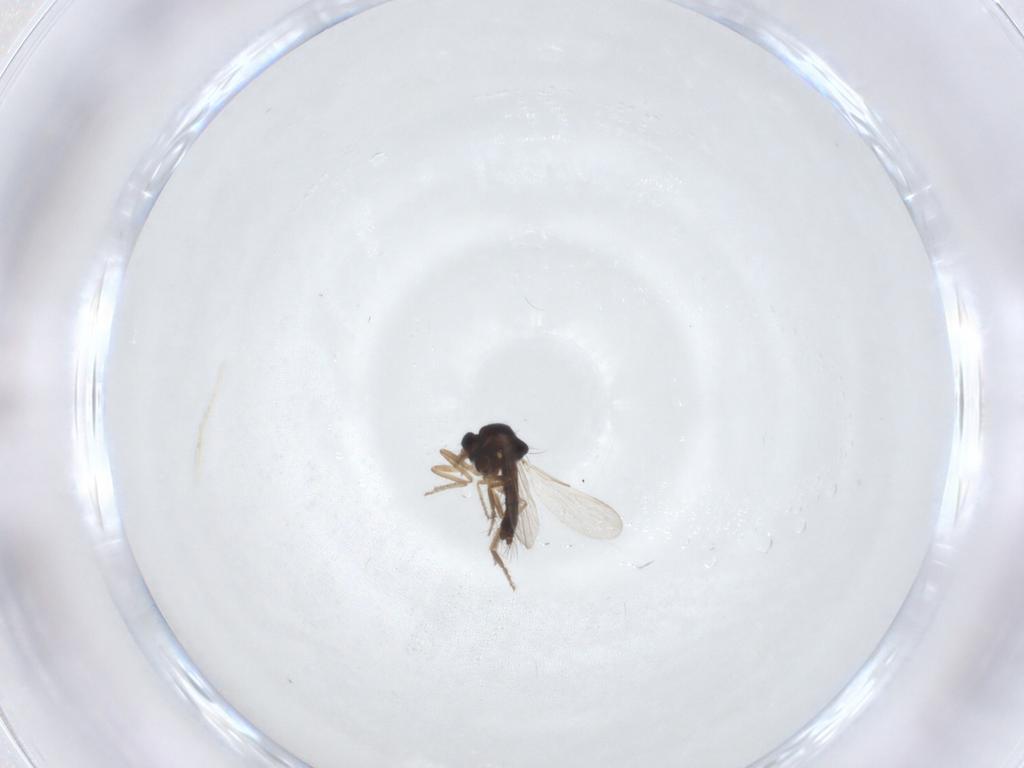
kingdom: Animalia
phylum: Arthropoda
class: Insecta
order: Diptera
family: Ceratopogonidae
